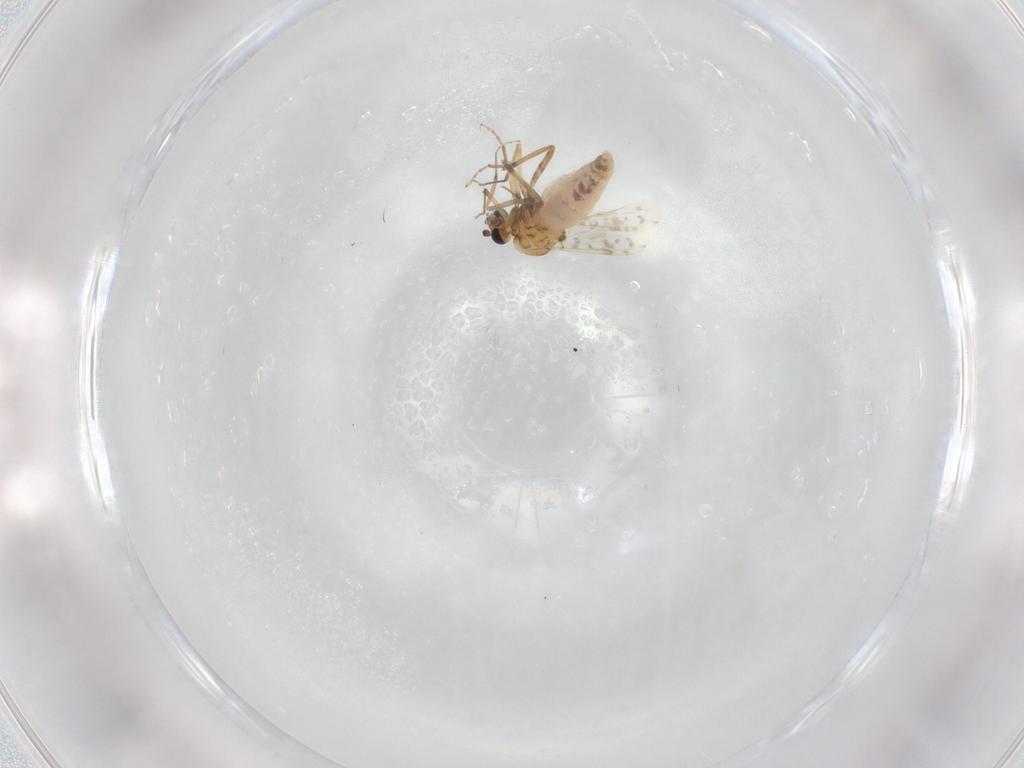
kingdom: Animalia
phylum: Arthropoda
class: Insecta
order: Diptera
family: Ceratopogonidae
